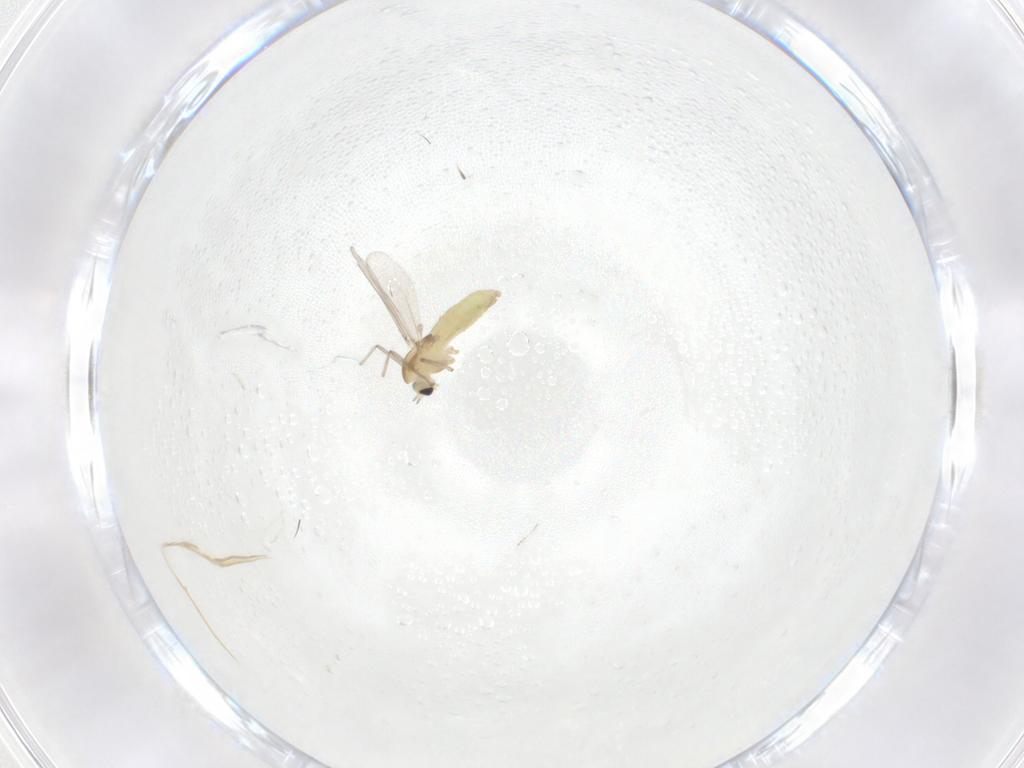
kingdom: Animalia
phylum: Arthropoda
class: Insecta
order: Diptera
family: Chironomidae
